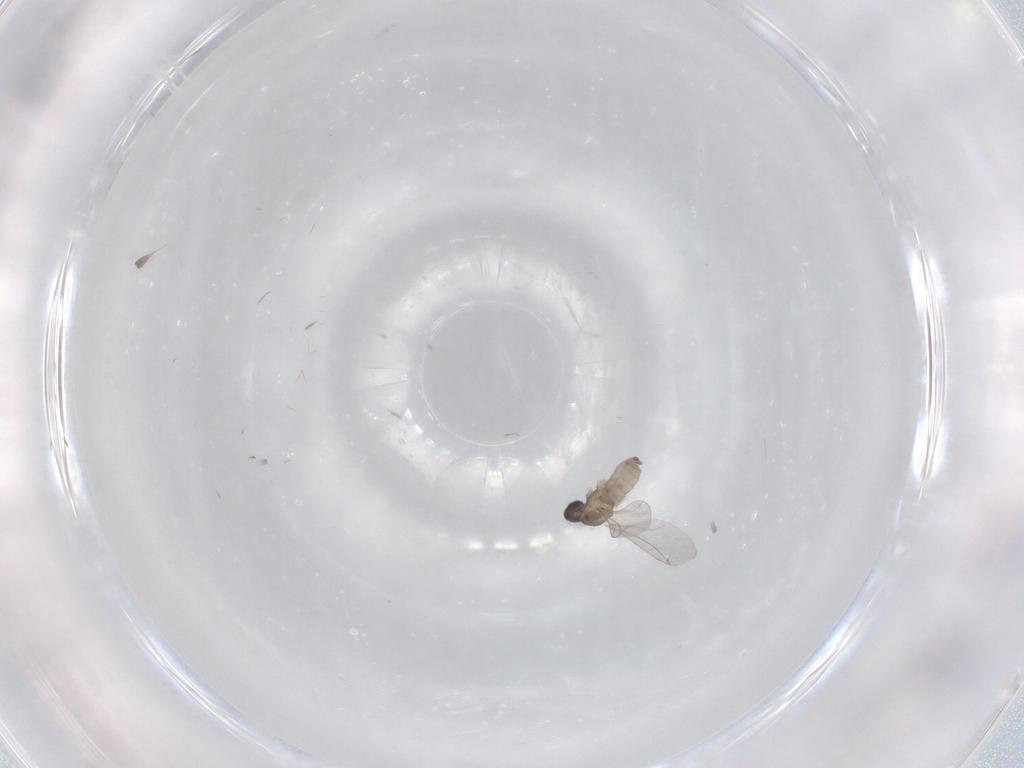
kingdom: Animalia
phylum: Arthropoda
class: Insecta
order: Diptera
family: Cecidomyiidae
